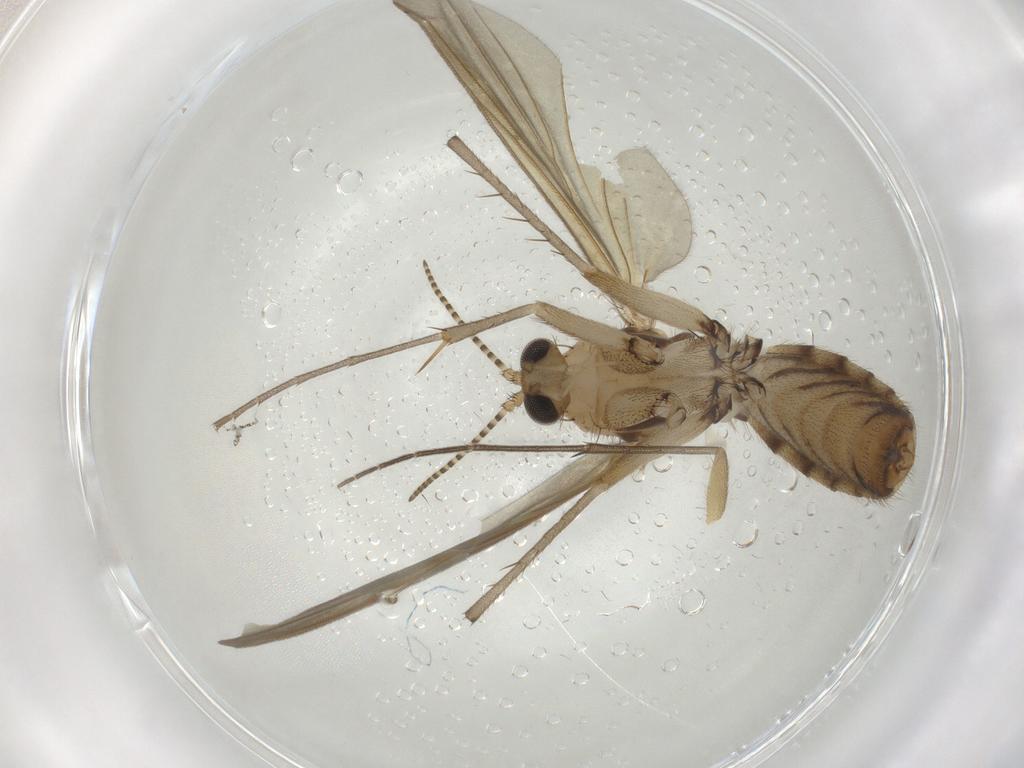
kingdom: Animalia
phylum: Arthropoda
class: Insecta
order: Diptera
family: Mycetophilidae
